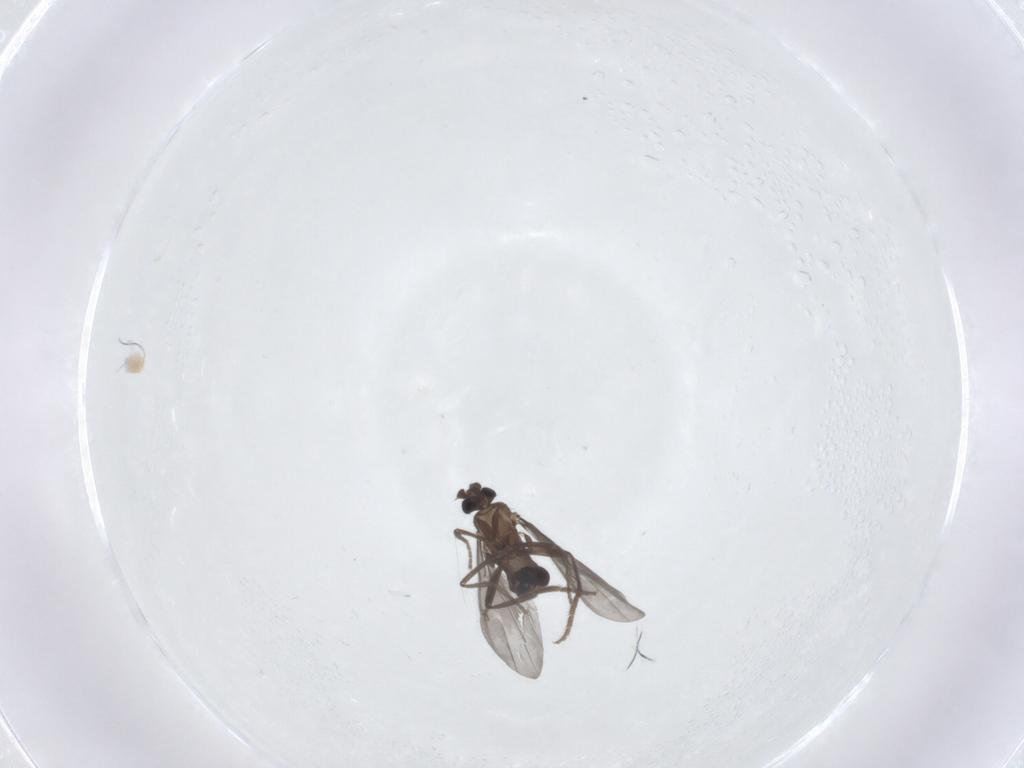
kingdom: Animalia
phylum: Arthropoda
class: Insecta
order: Diptera
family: Phoridae
